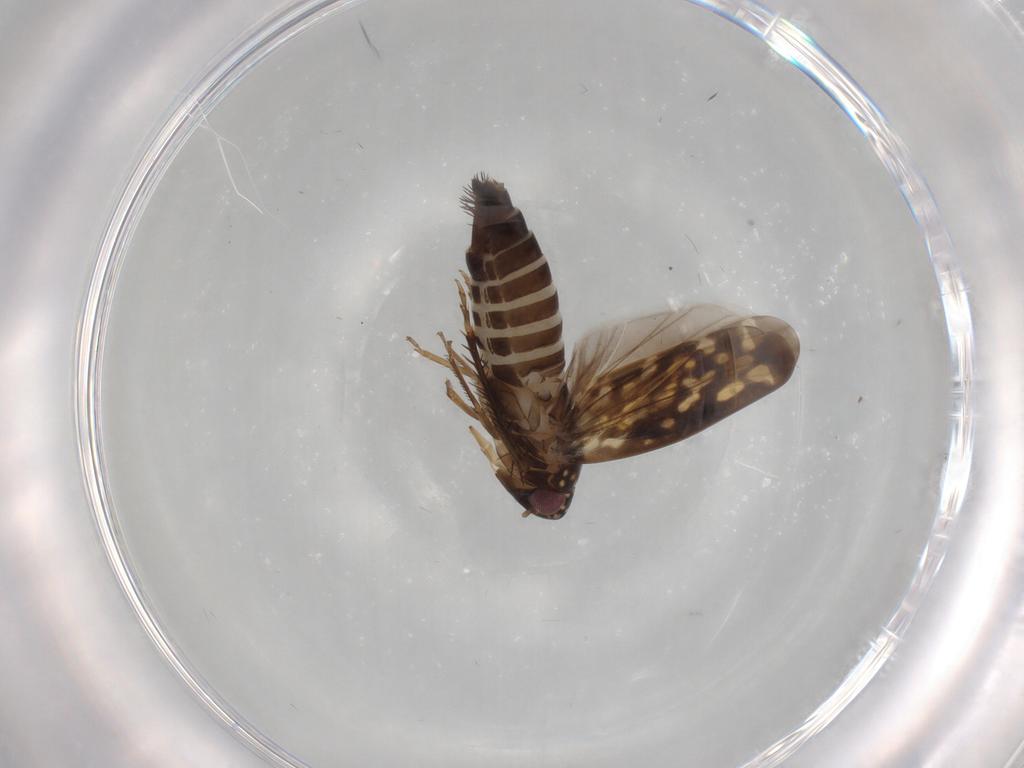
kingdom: Animalia
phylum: Arthropoda
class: Insecta
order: Hemiptera
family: Cicadellidae
